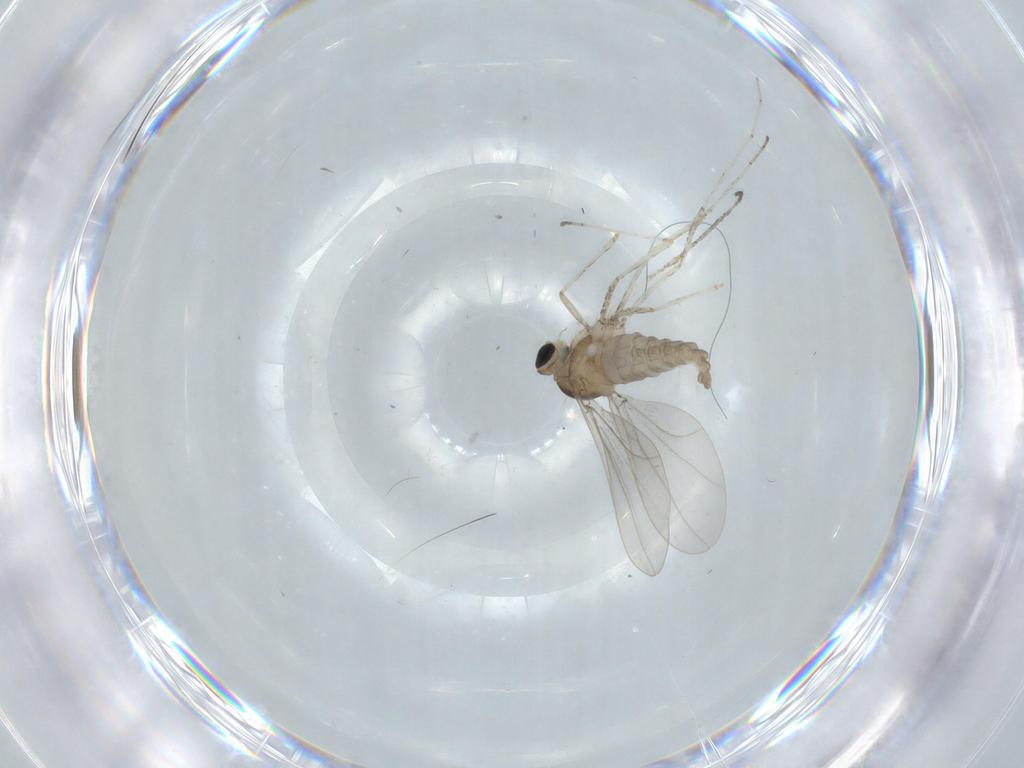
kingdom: Animalia
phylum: Arthropoda
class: Insecta
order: Diptera
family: Cecidomyiidae
